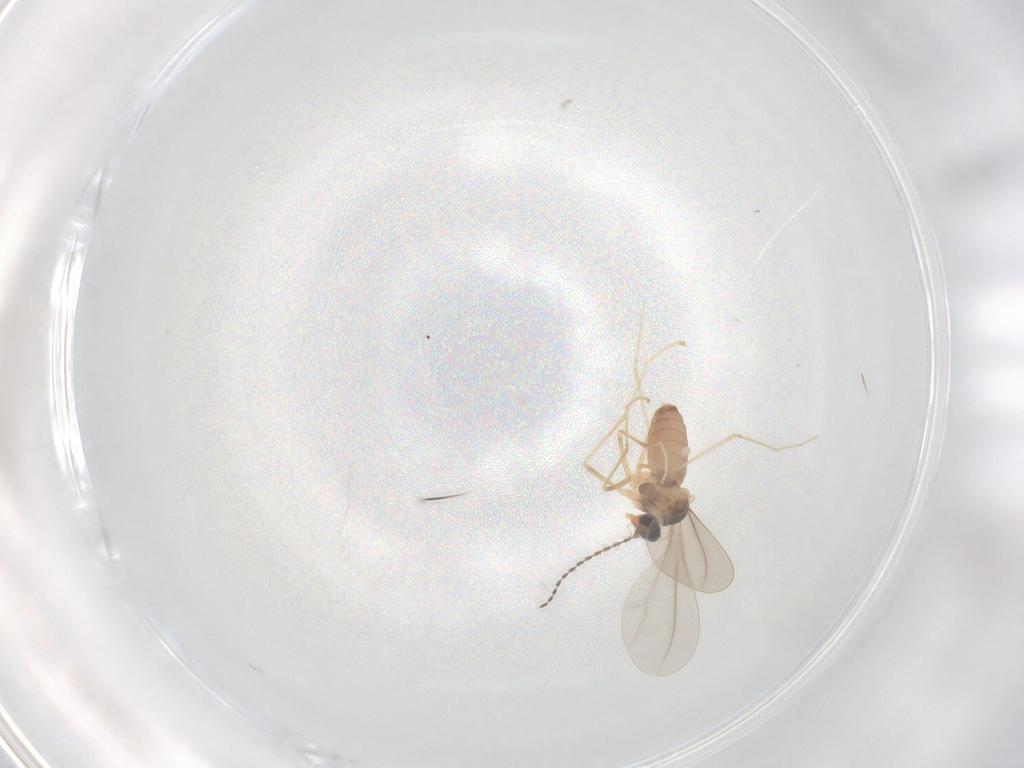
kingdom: Animalia
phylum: Arthropoda
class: Insecta
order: Diptera
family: Cecidomyiidae
